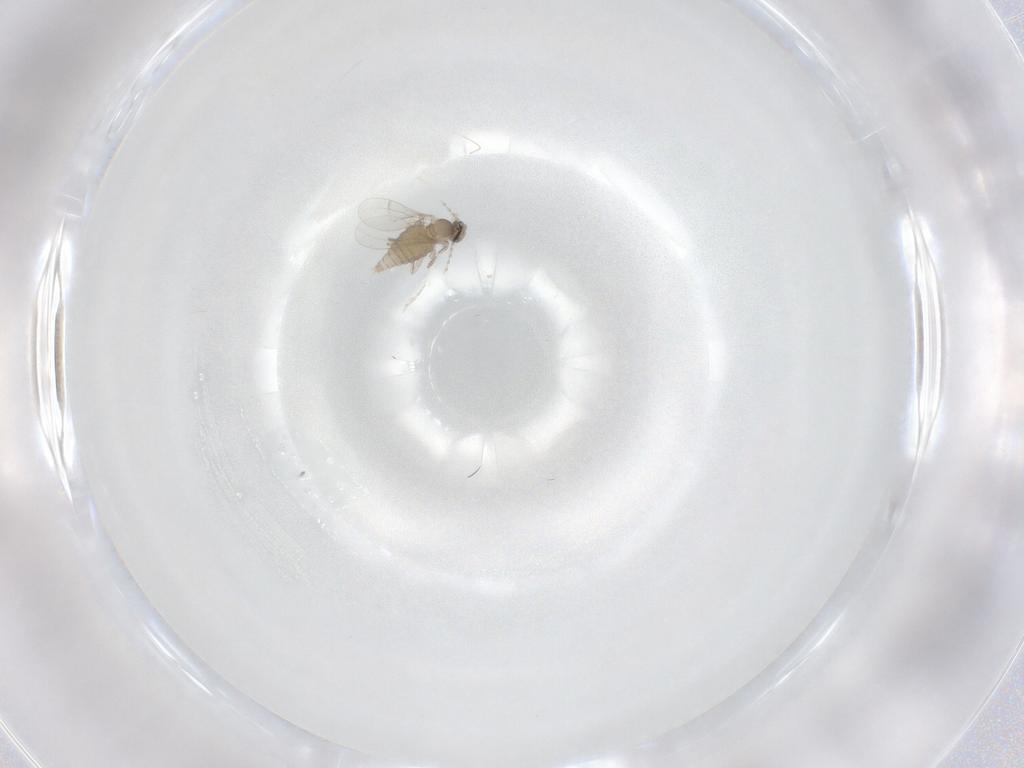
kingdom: Animalia
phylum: Arthropoda
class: Insecta
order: Diptera
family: Cecidomyiidae
